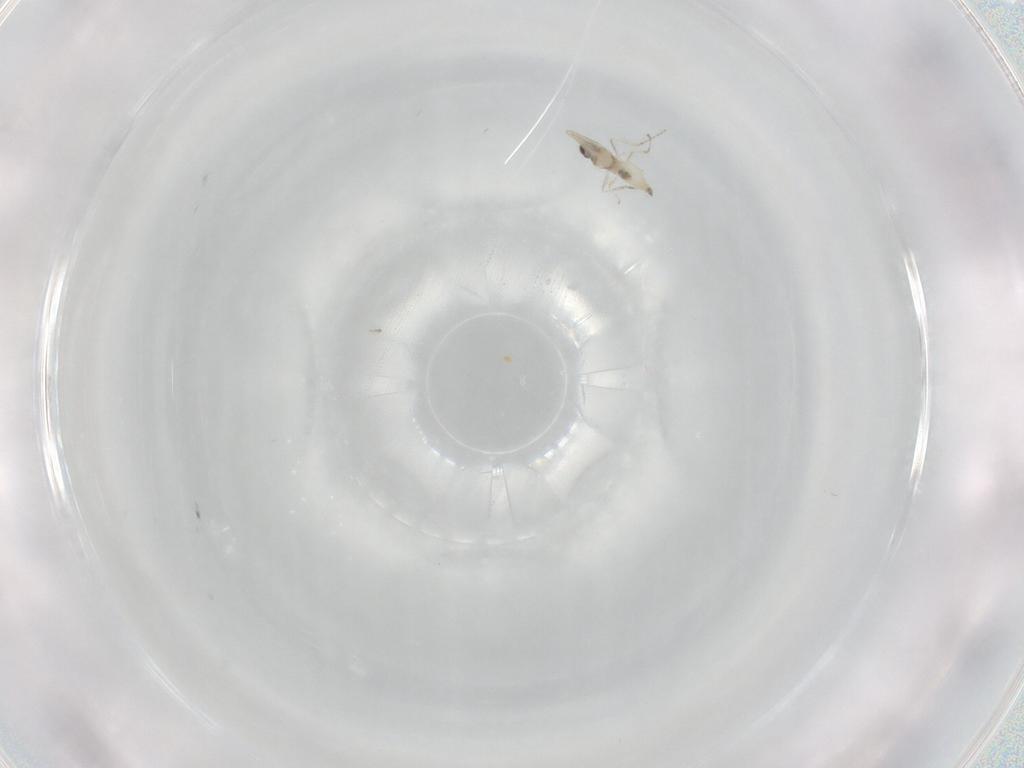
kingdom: Animalia
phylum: Arthropoda
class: Insecta
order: Diptera
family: Cecidomyiidae
